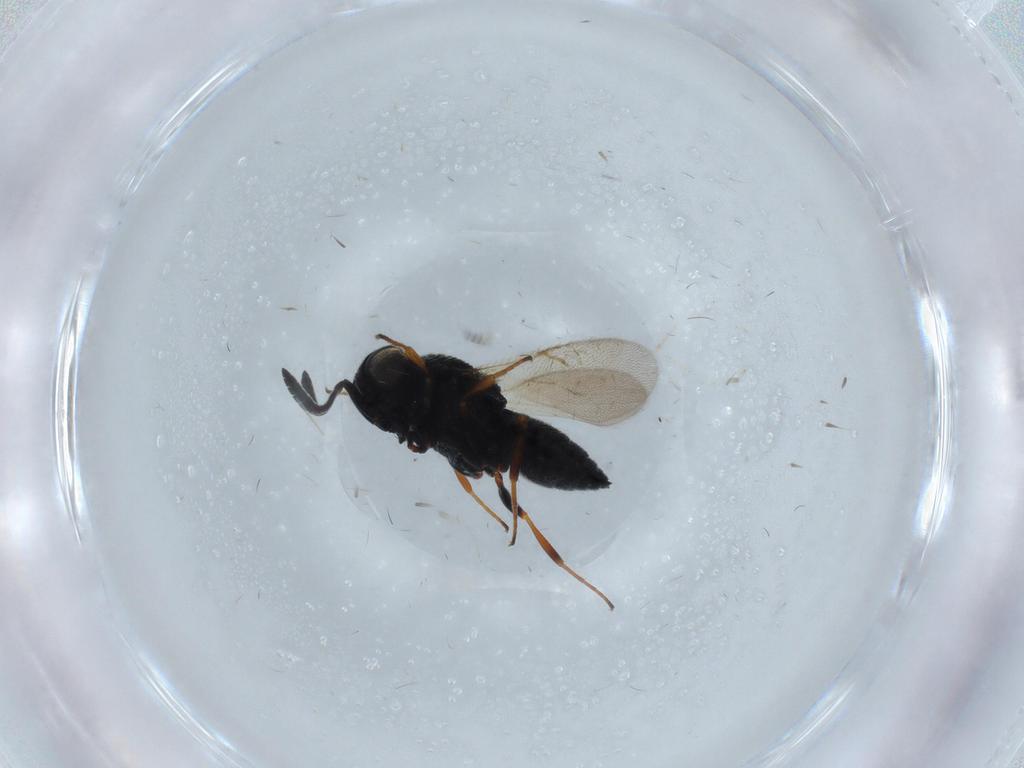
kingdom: Animalia
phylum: Arthropoda
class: Insecta
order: Hymenoptera
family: Scelionidae
